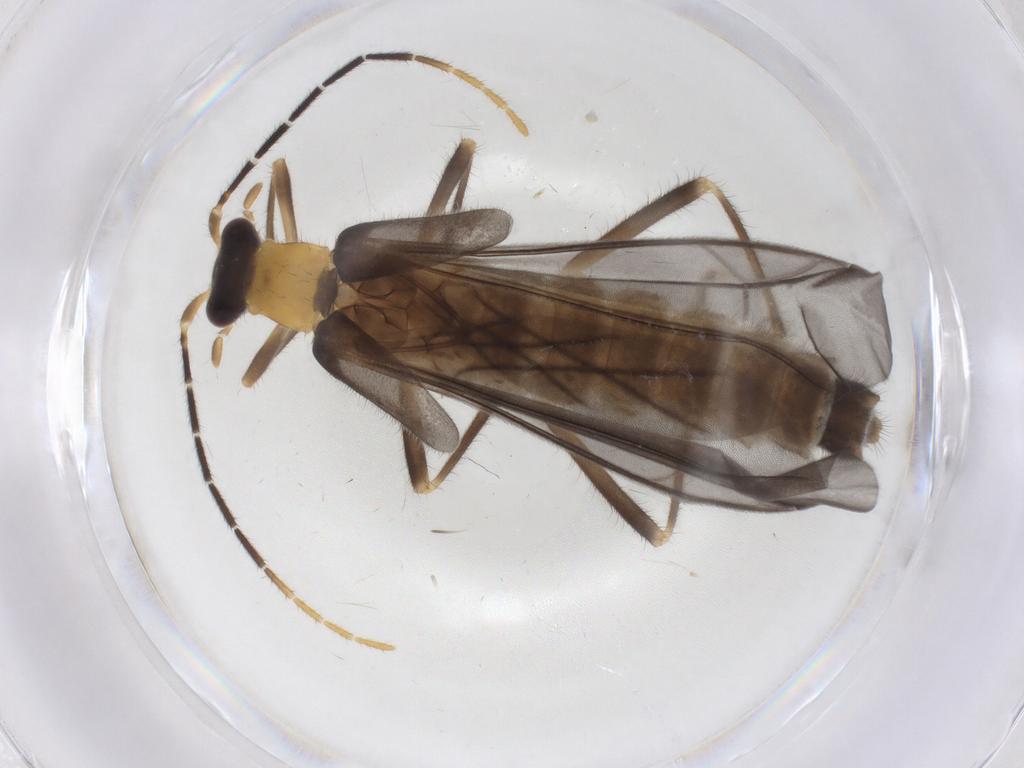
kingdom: Animalia
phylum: Arthropoda
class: Insecta
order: Coleoptera
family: Cantharidae
